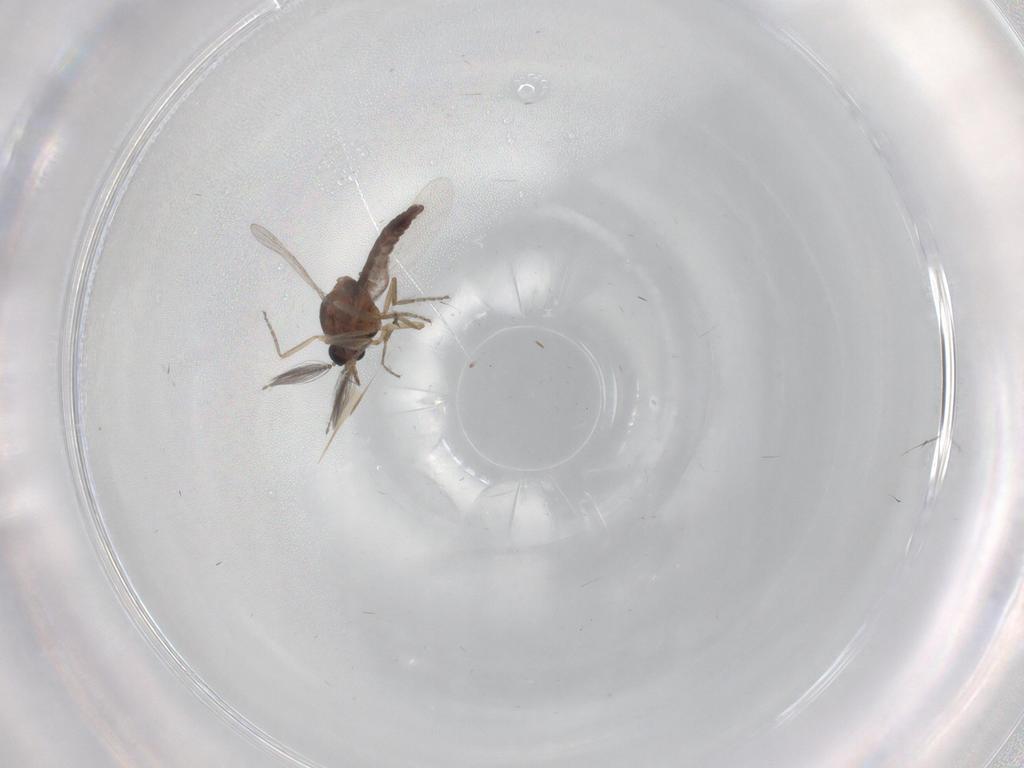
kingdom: Animalia
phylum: Arthropoda
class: Insecta
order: Diptera
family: Ceratopogonidae
